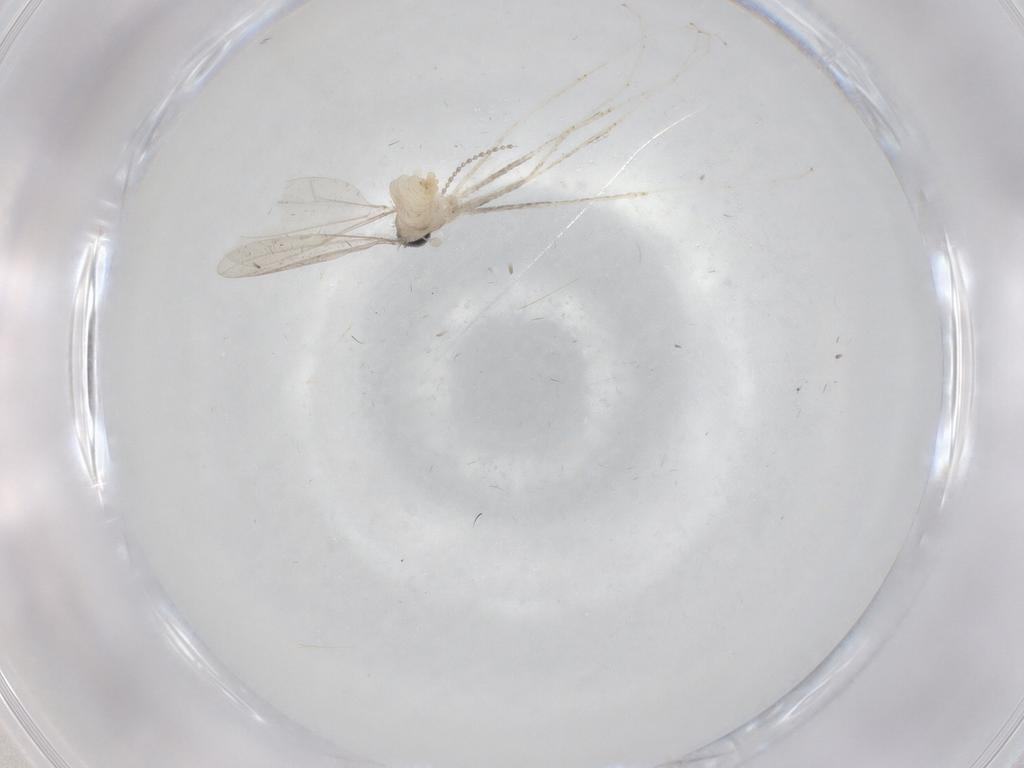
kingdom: Animalia
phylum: Arthropoda
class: Insecta
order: Diptera
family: Cecidomyiidae
